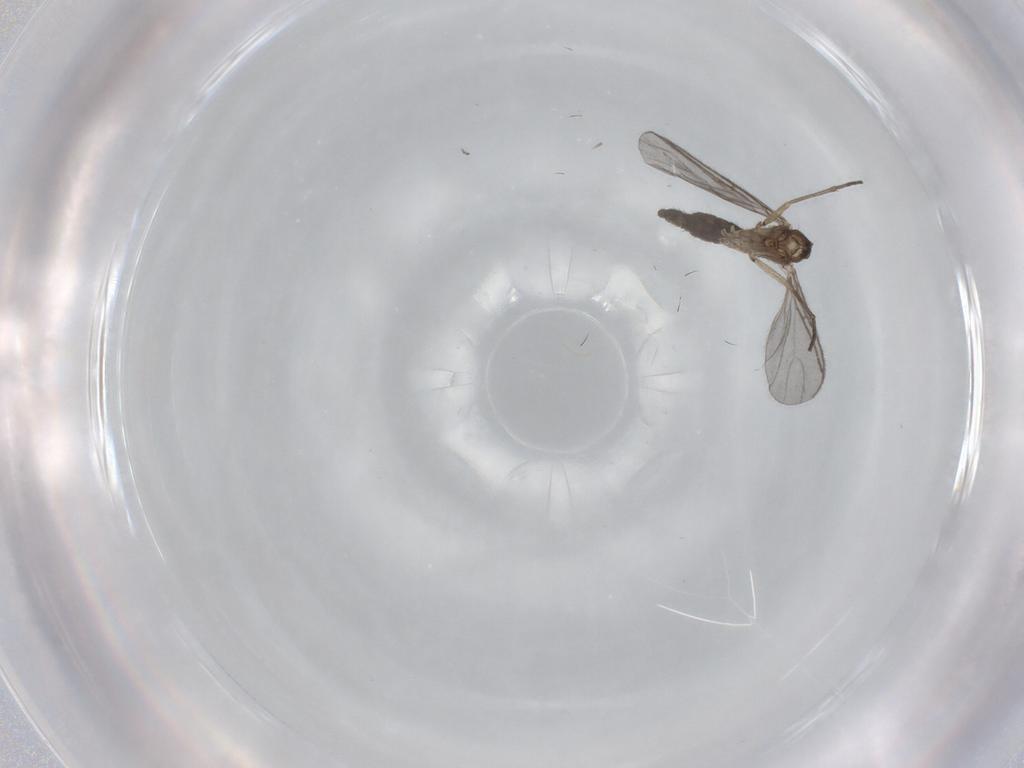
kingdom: Animalia
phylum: Arthropoda
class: Insecta
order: Diptera
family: Sciaridae
